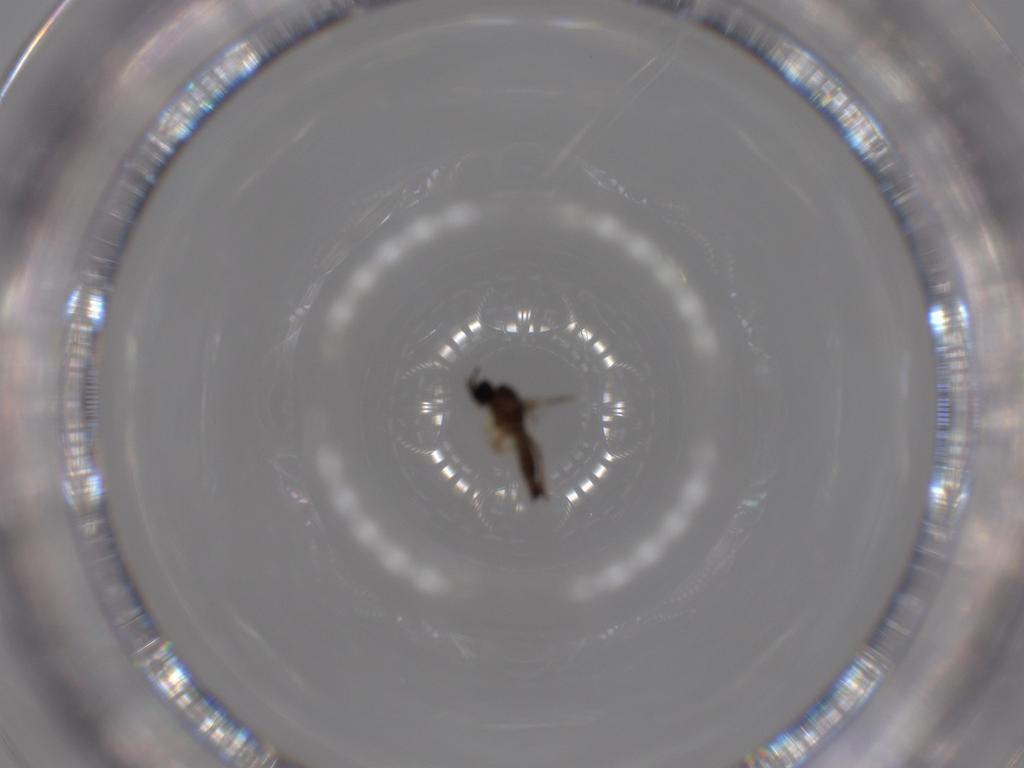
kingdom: Animalia
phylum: Arthropoda
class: Insecta
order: Diptera
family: Sciaridae
